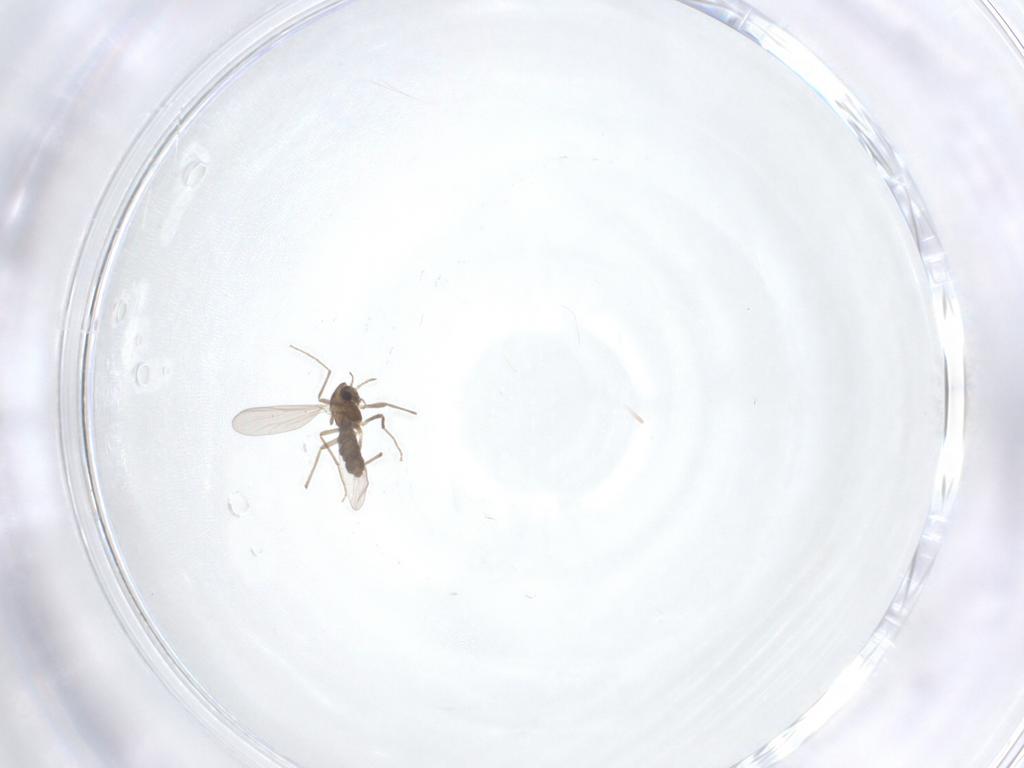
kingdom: Animalia
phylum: Arthropoda
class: Insecta
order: Diptera
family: Chironomidae
